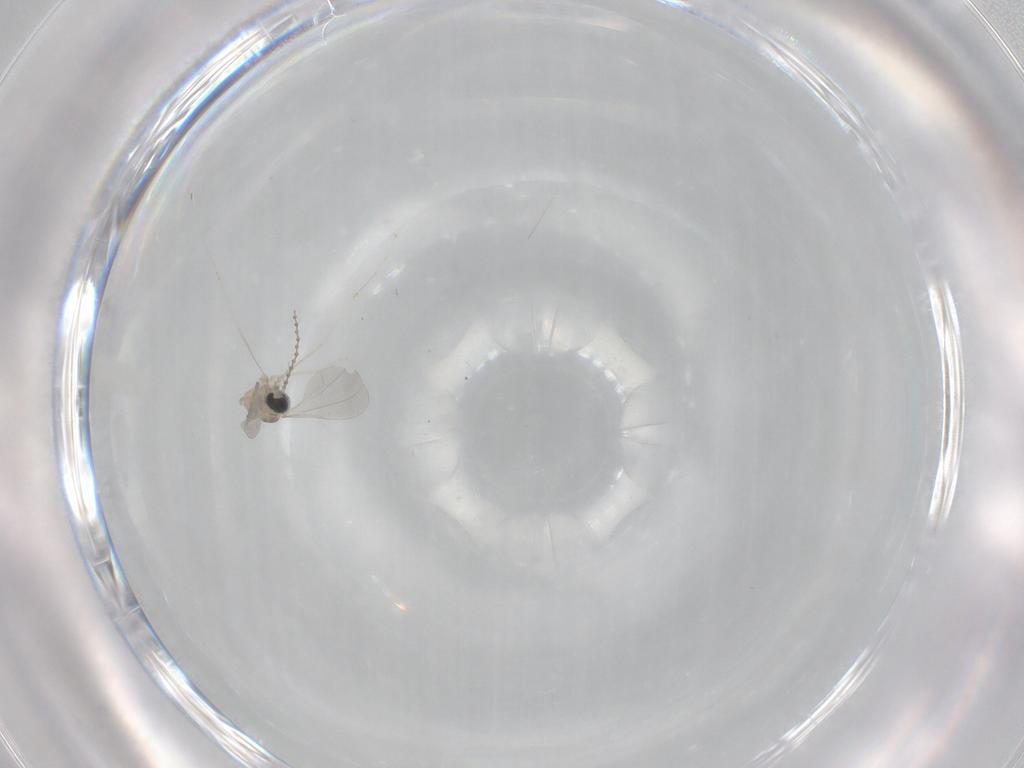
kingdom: Animalia
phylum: Arthropoda
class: Insecta
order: Diptera
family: Cecidomyiidae
